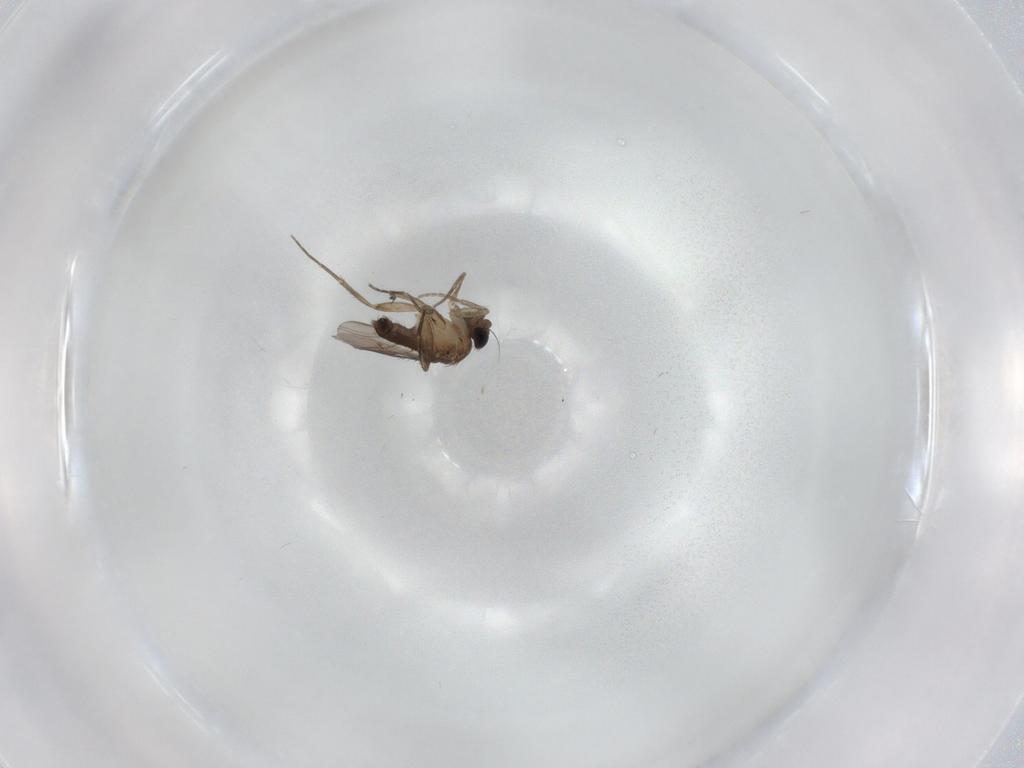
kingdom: Animalia
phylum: Arthropoda
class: Insecta
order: Diptera
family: Phoridae
